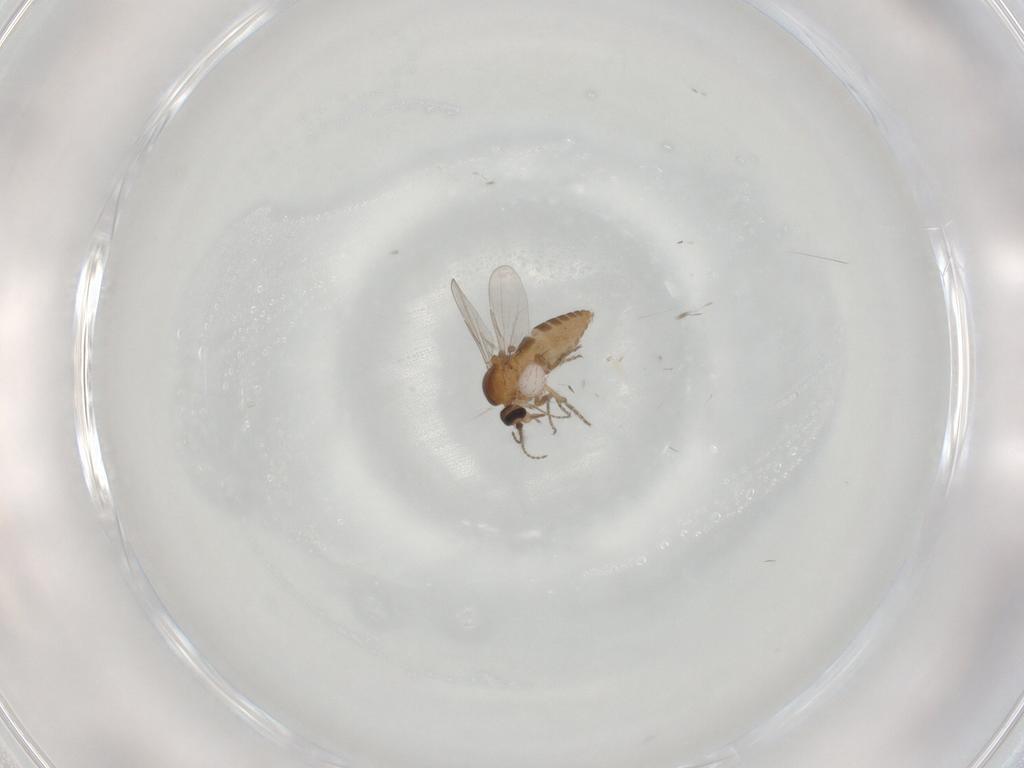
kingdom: Animalia
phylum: Arthropoda
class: Insecta
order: Diptera
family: Ceratopogonidae
